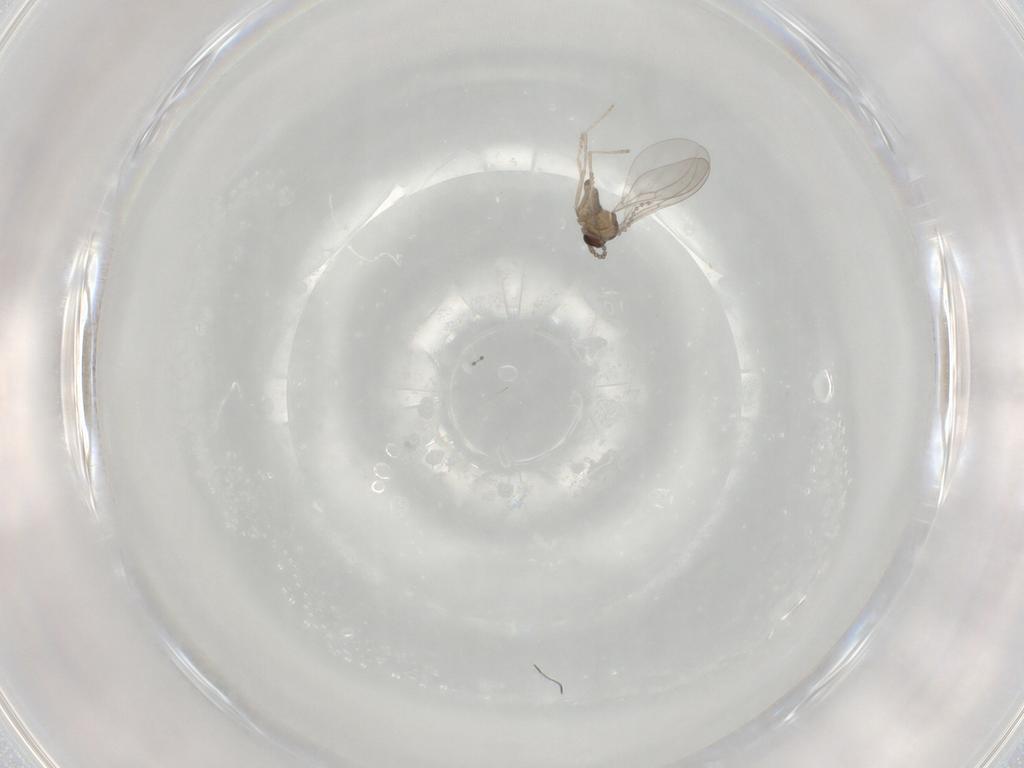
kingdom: Animalia
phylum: Arthropoda
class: Insecta
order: Diptera
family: Cecidomyiidae
